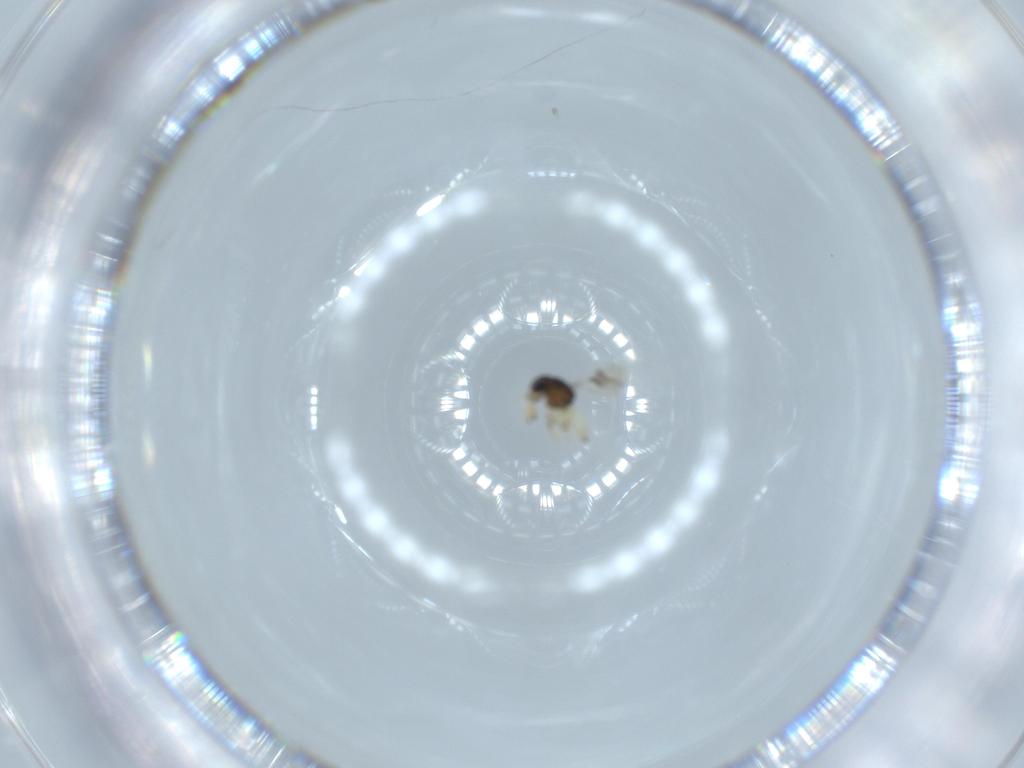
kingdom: Animalia
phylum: Arthropoda
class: Insecta
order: Hymenoptera
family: Scelionidae
